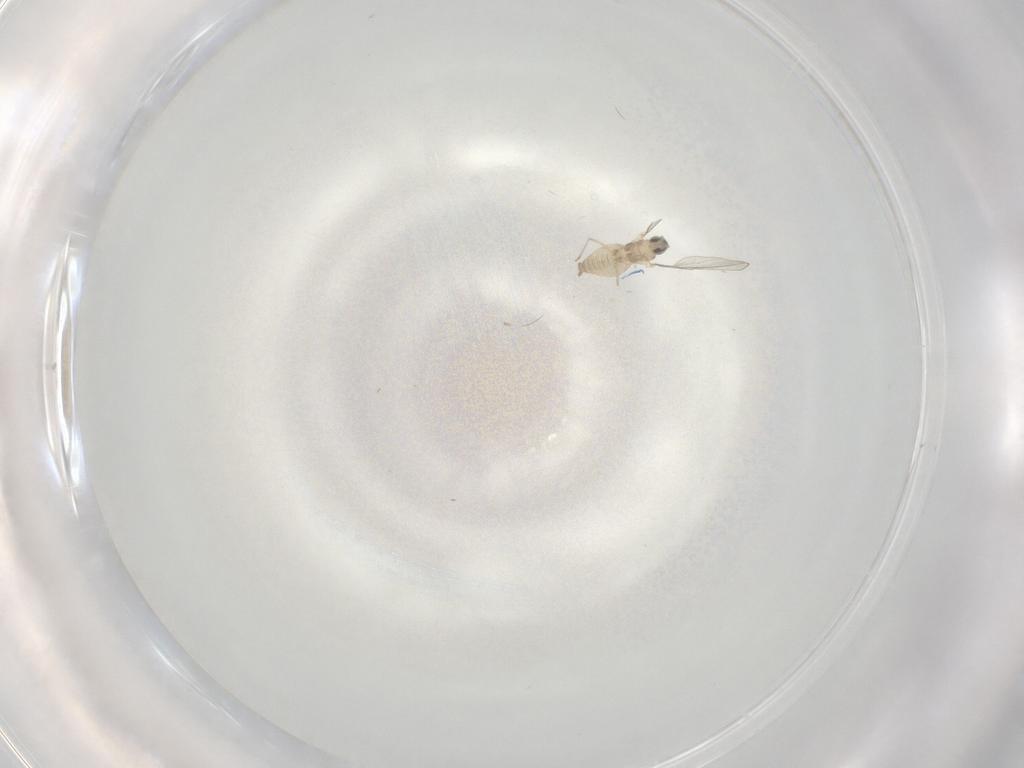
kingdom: Animalia
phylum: Arthropoda
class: Insecta
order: Diptera
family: Cecidomyiidae
